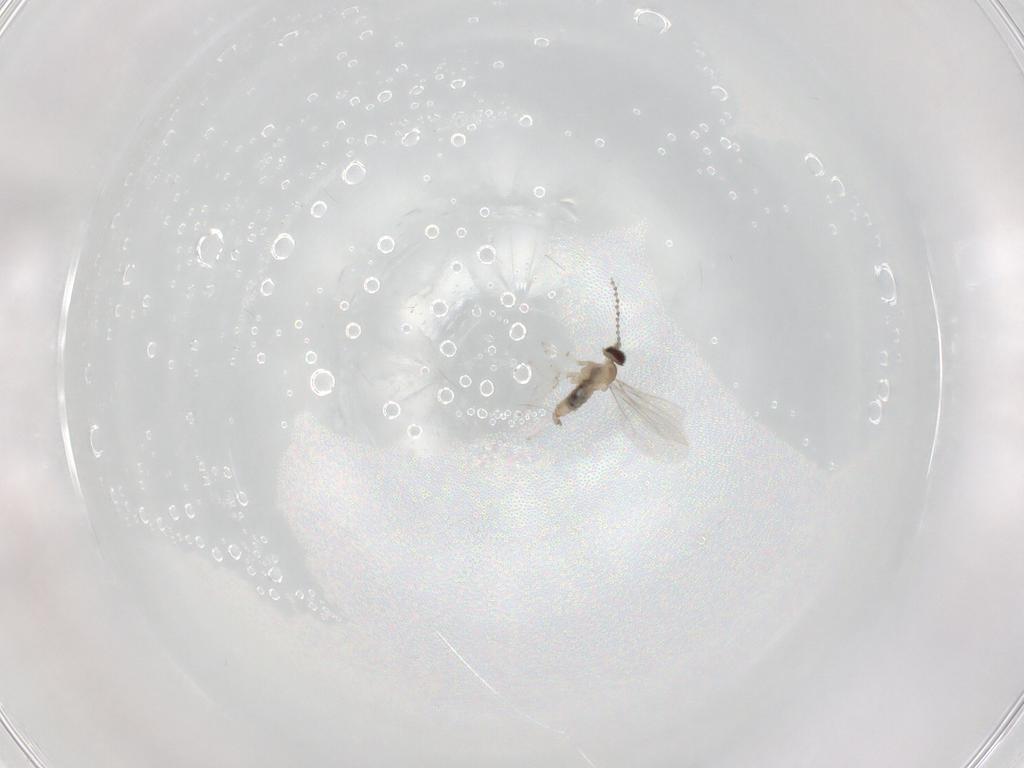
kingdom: Animalia
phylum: Arthropoda
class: Insecta
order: Diptera
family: Cecidomyiidae
